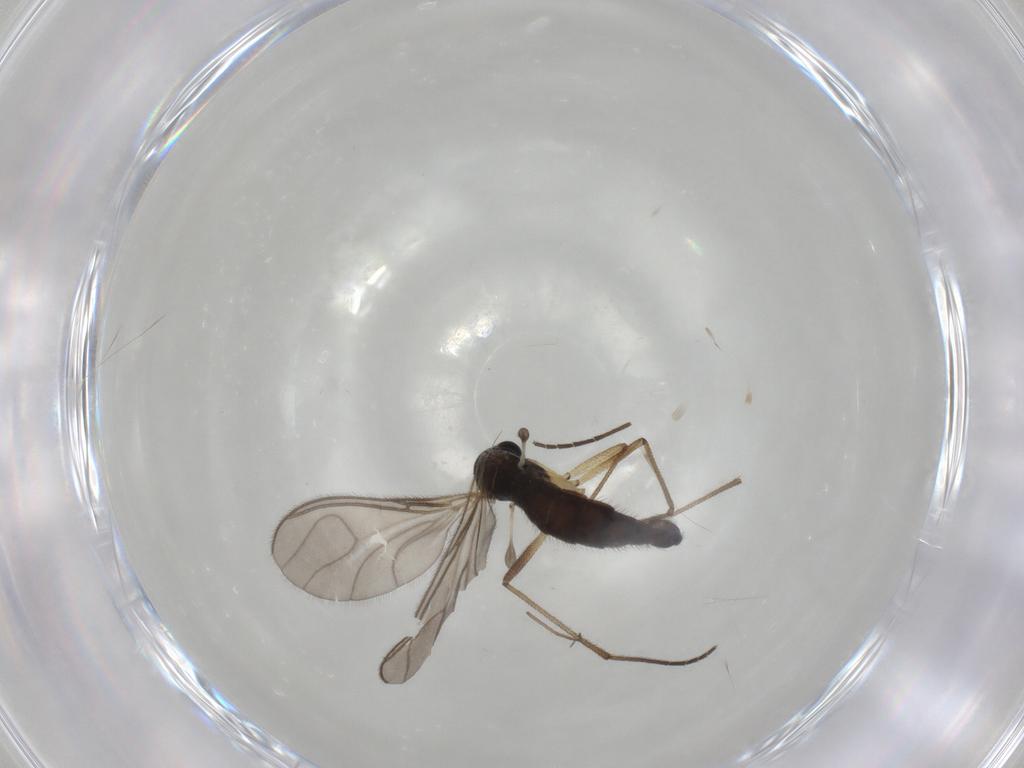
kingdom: Animalia
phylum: Arthropoda
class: Insecta
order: Diptera
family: Sciaridae
